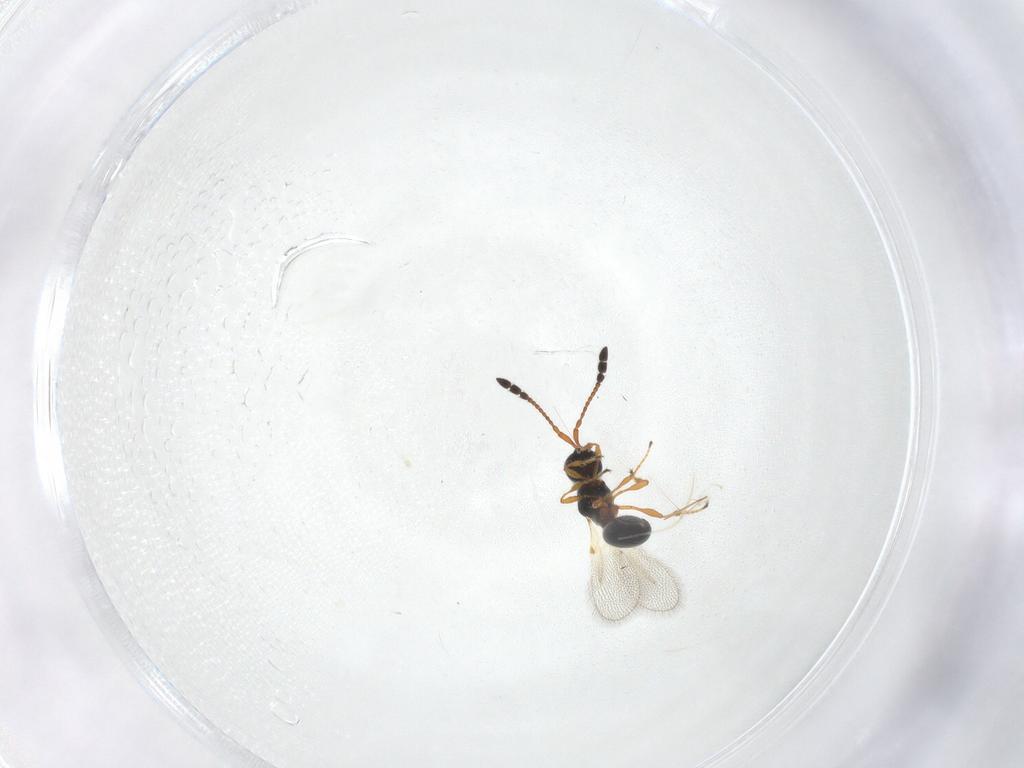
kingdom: Animalia
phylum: Arthropoda
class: Insecta
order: Hymenoptera
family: Diapriidae
